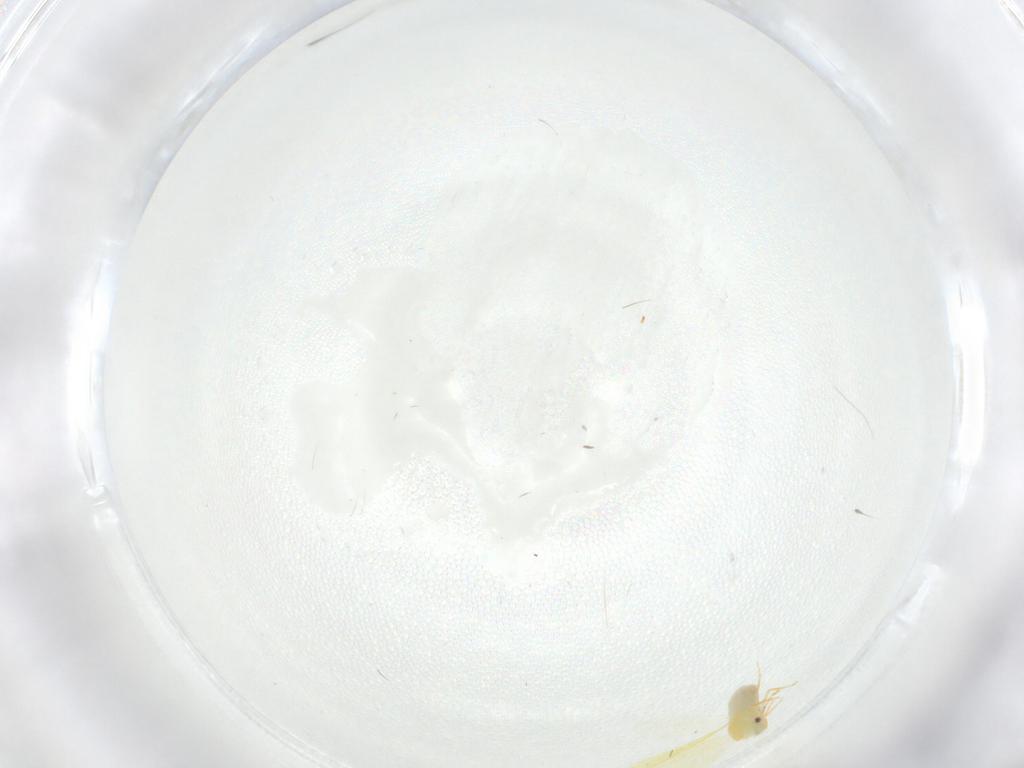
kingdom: Animalia
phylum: Arthropoda
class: Insecta
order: Hemiptera
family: Aleyrodidae
